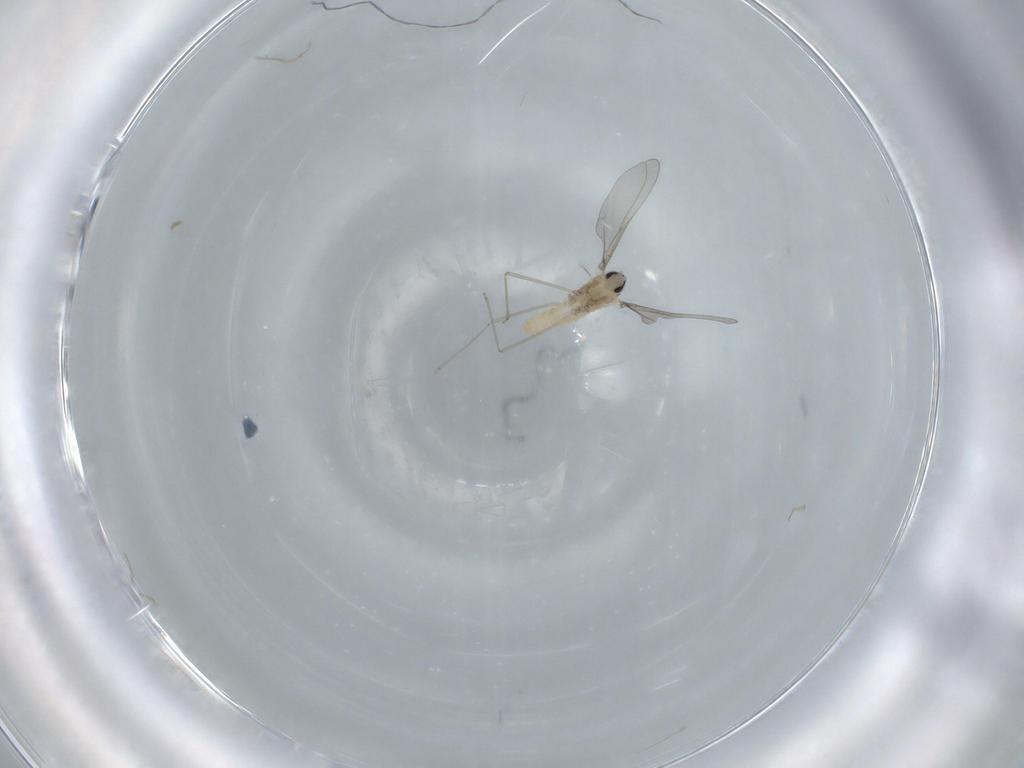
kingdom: Animalia
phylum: Arthropoda
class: Insecta
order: Diptera
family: Cecidomyiidae
